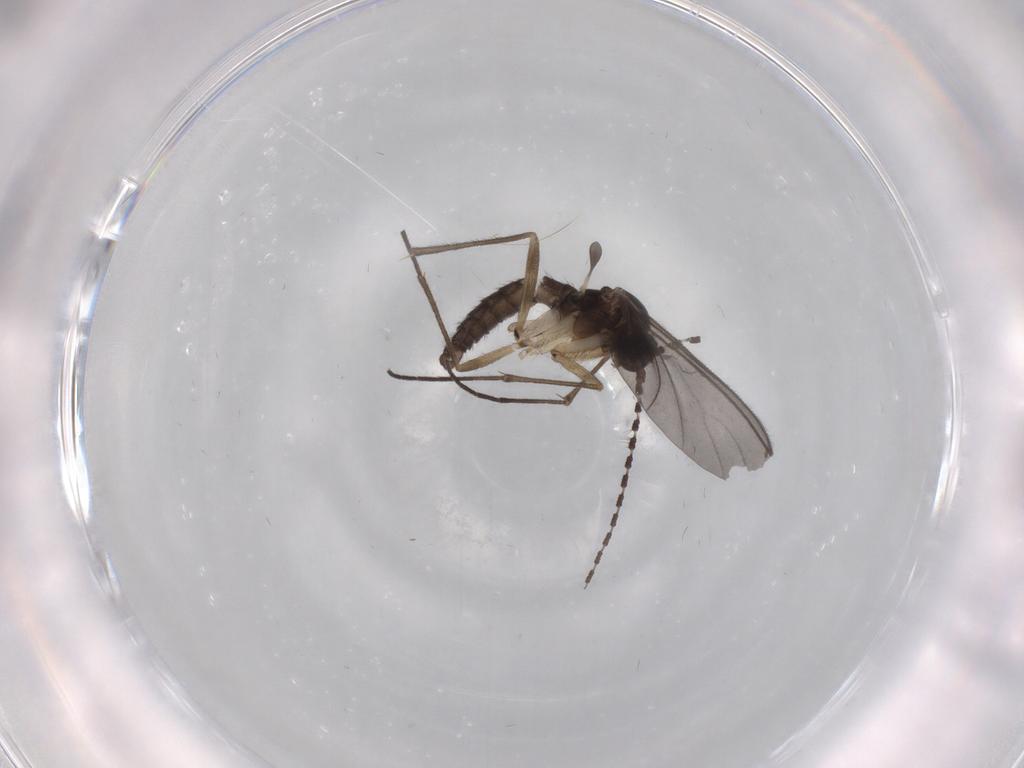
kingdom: Animalia
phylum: Arthropoda
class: Insecta
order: Diptera
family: Sciaridae
